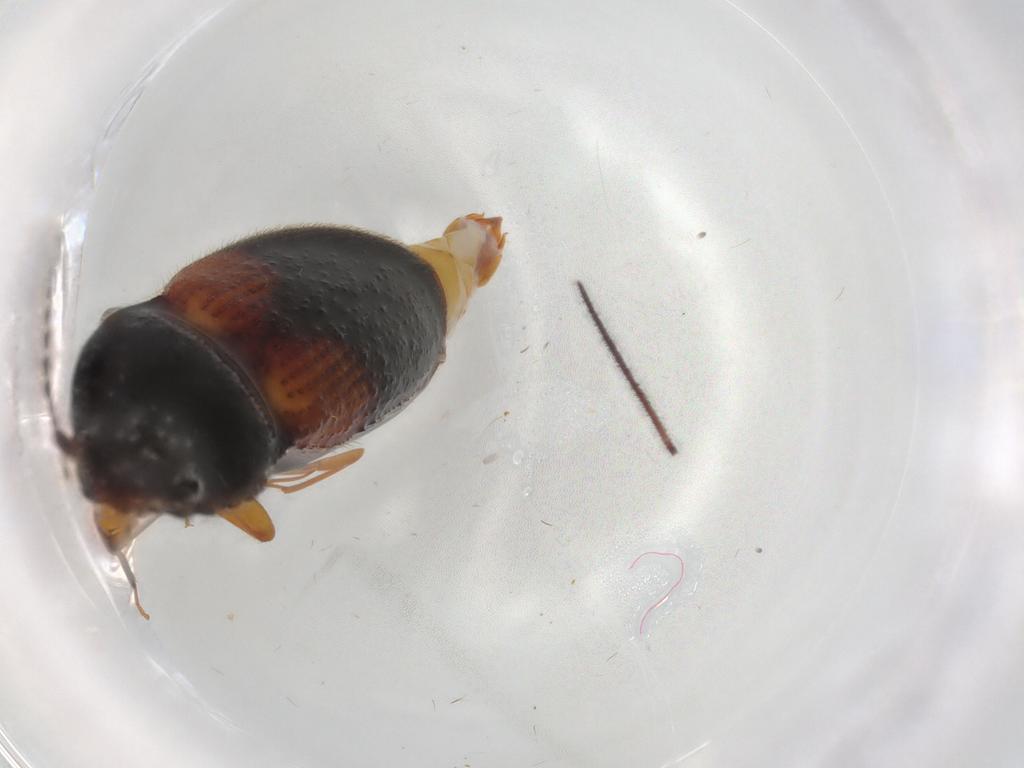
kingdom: Animalia
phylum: Arthropoda
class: Insecta
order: Coleoptera
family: Elateridae
